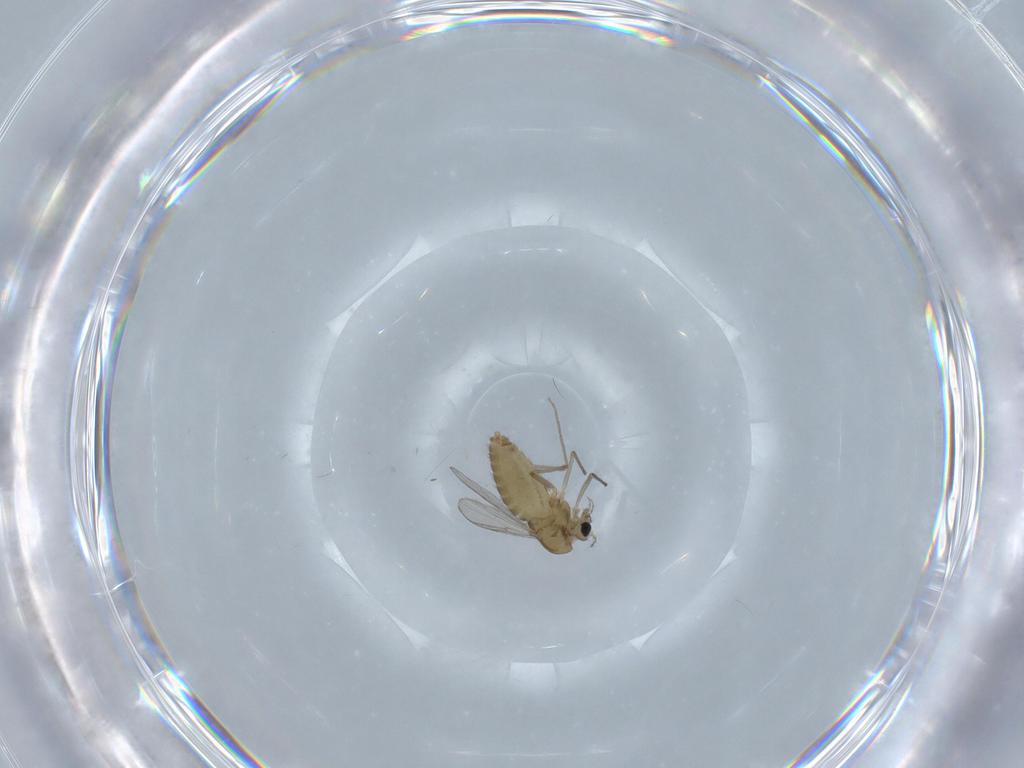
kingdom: Animalia
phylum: Arthropoda
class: Insecta
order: Diptera
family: Chironomidae
